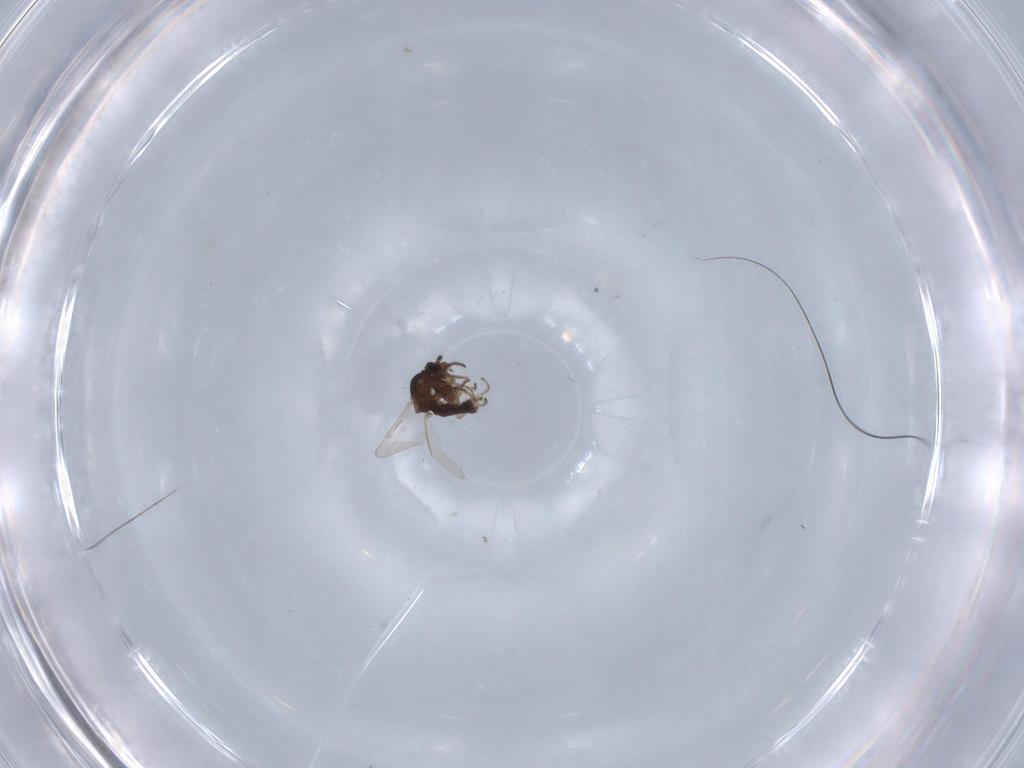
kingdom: Animalia
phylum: Arthropoda
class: Insecta
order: Diptera
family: Ceratopogonidae
